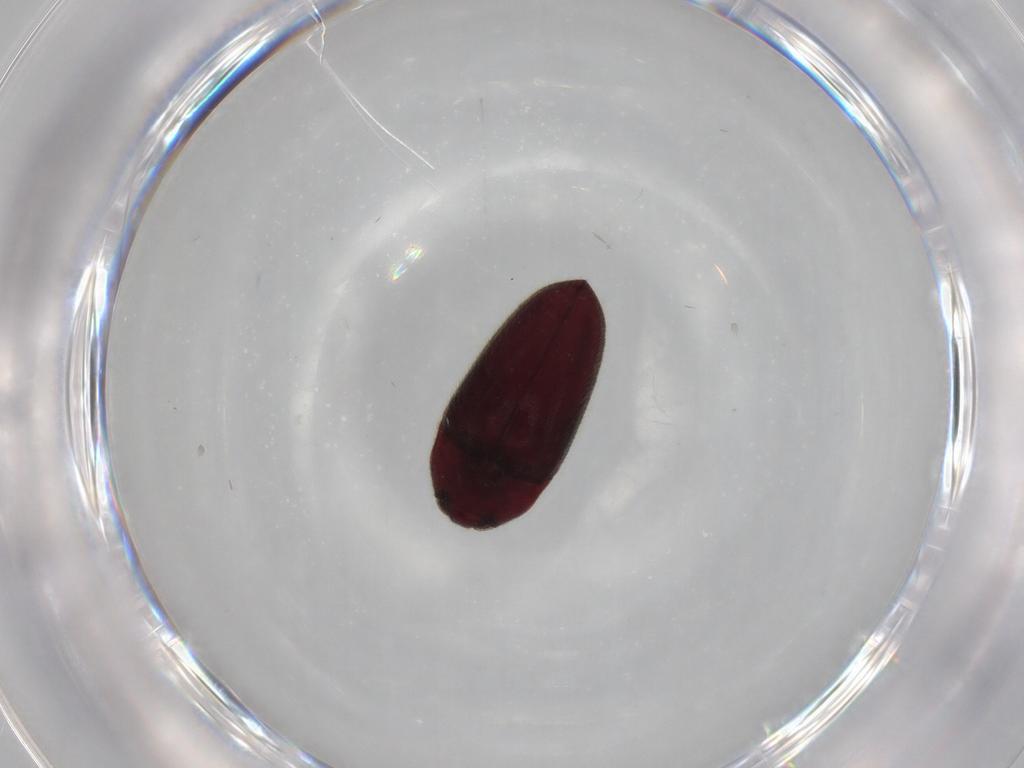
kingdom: Animalia
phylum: Arthropoda
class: Insecta
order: Coleoptera
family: Throscidae
